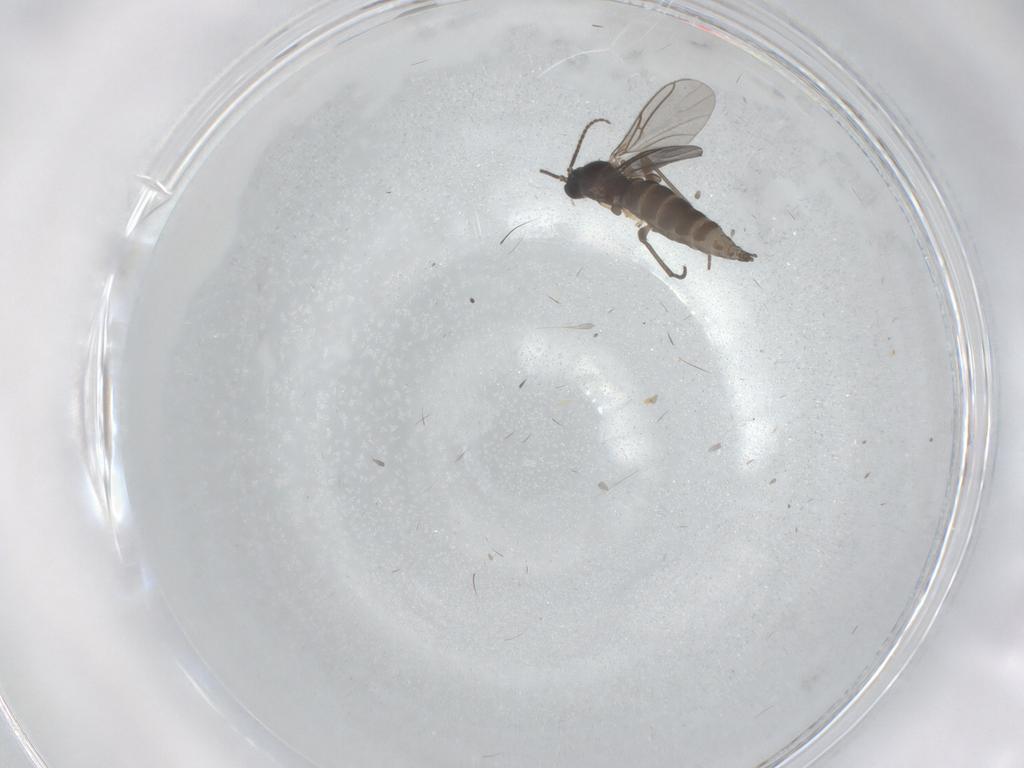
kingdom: Animalia
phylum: Arthropoda
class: Insecta
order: Diptera
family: Sciaridae
